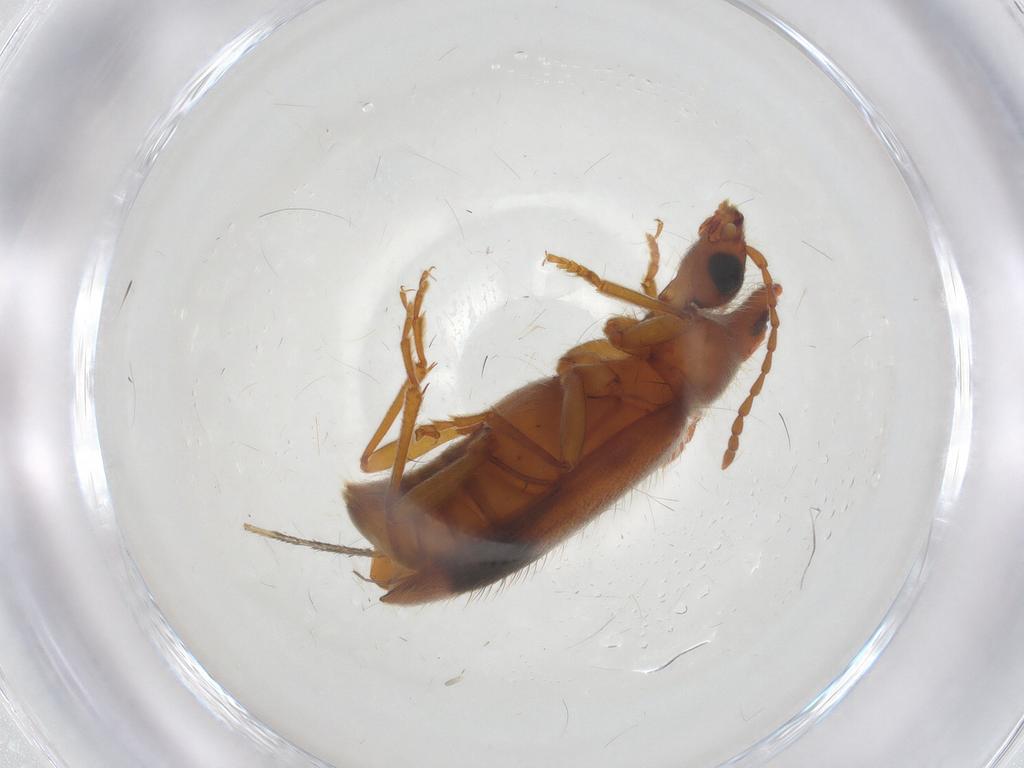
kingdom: Animalia
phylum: Arthropoda
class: Insecta
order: Coleoptera
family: Anthicidae
